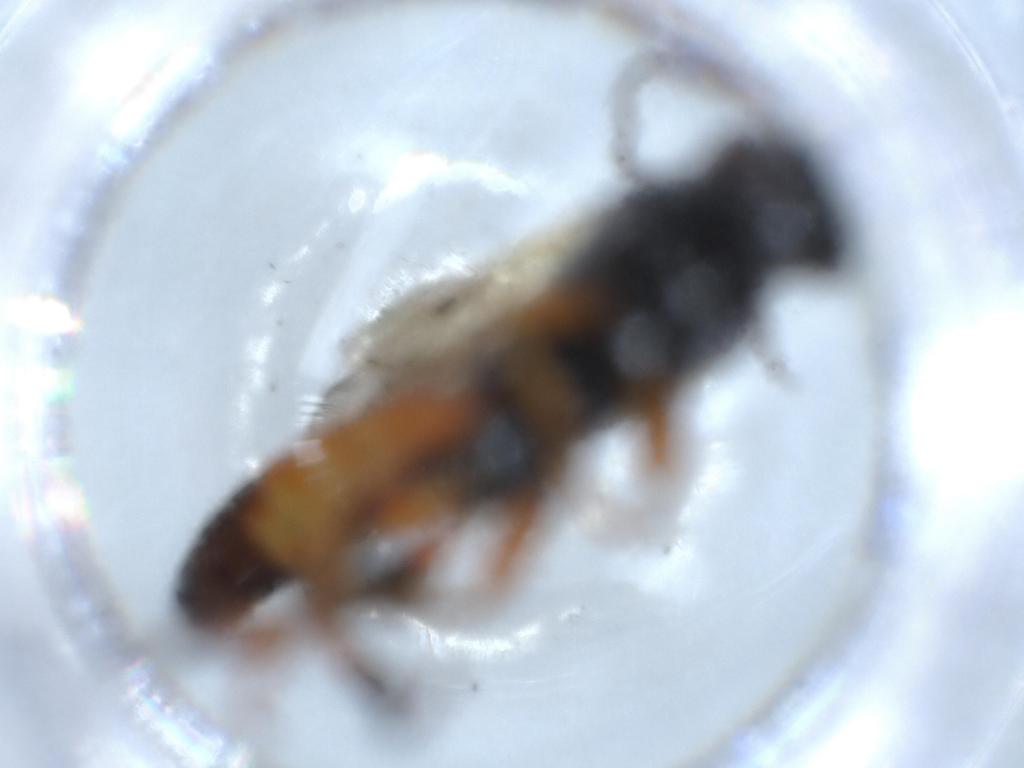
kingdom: Animalia
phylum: Arthropoda
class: Insecta
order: Hymenoptera
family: Ichneumonidae
